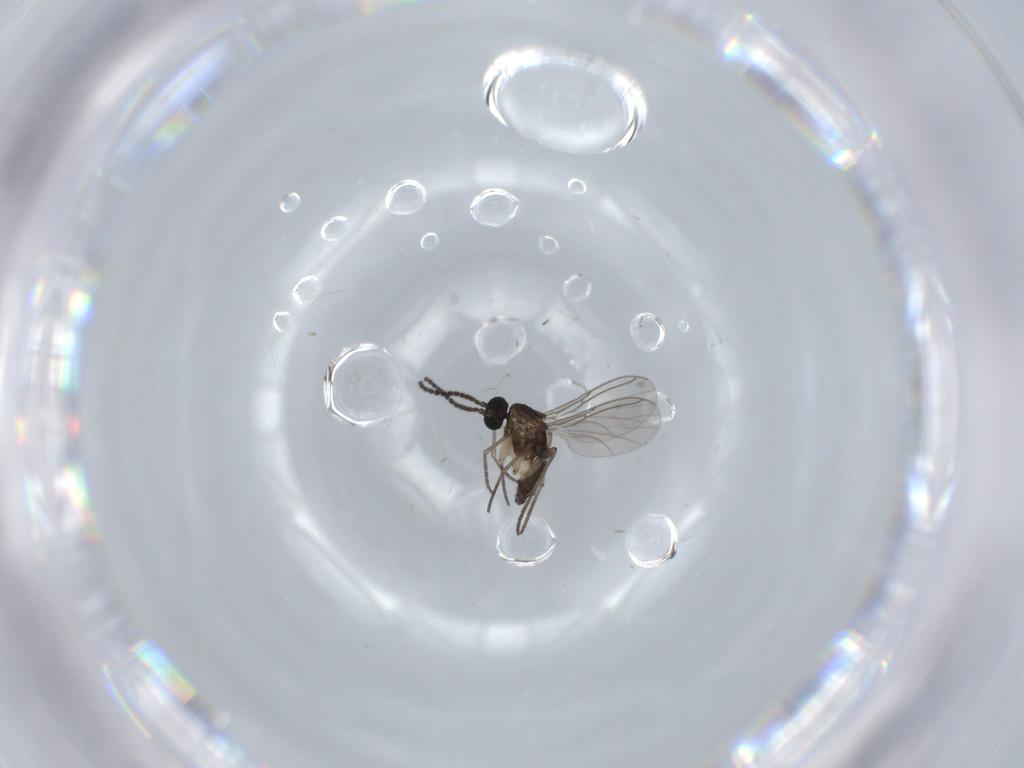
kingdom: Animalia
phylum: Arthropoda
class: Insecta
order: Diptera
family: Sciaridae
